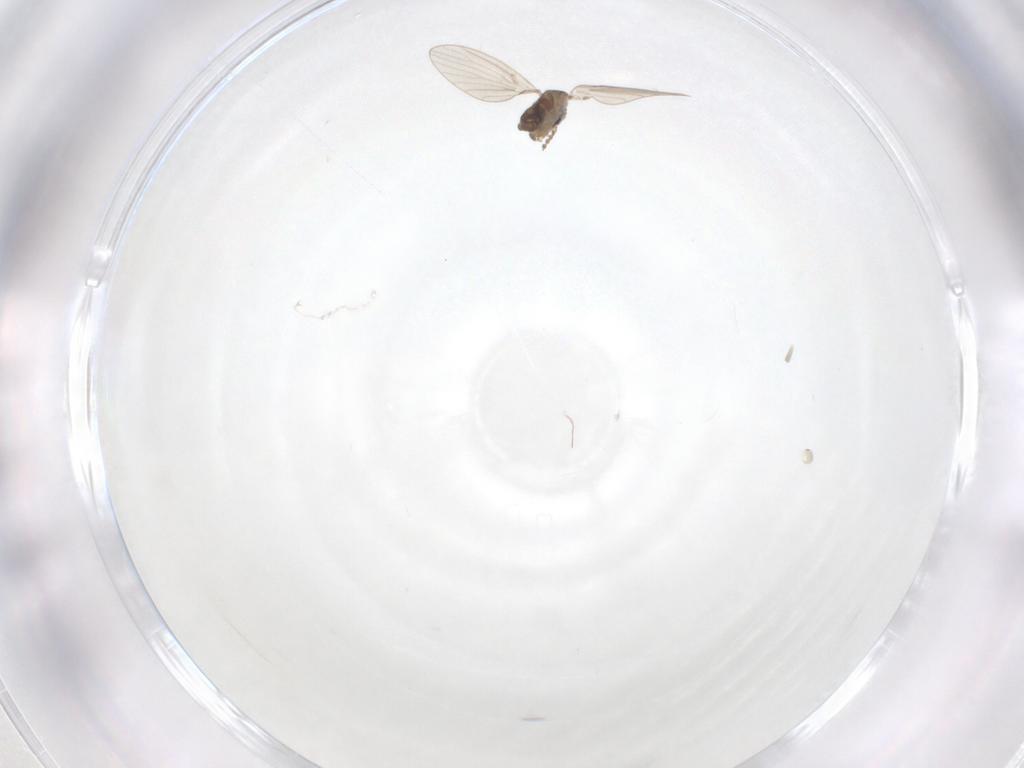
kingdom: Animalia
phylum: Arthropoda
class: Insecta
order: Diptera
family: Phoridae
